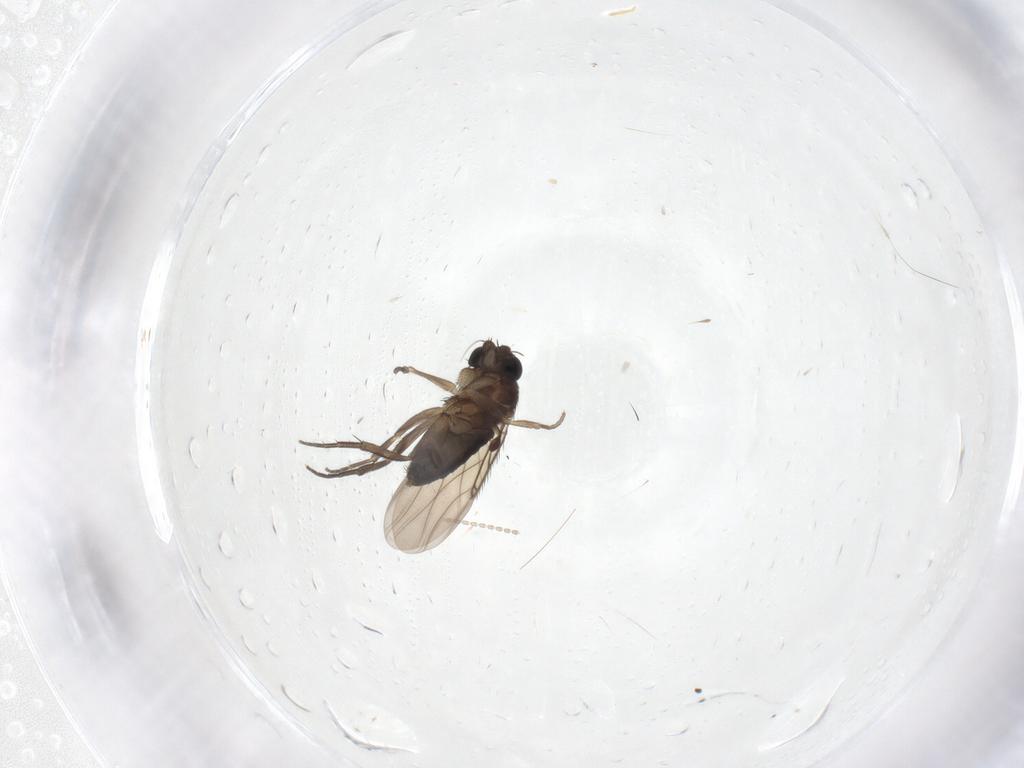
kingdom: Animalia
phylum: Arthropoda
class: Insecta
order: Diptera
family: Phoridae
